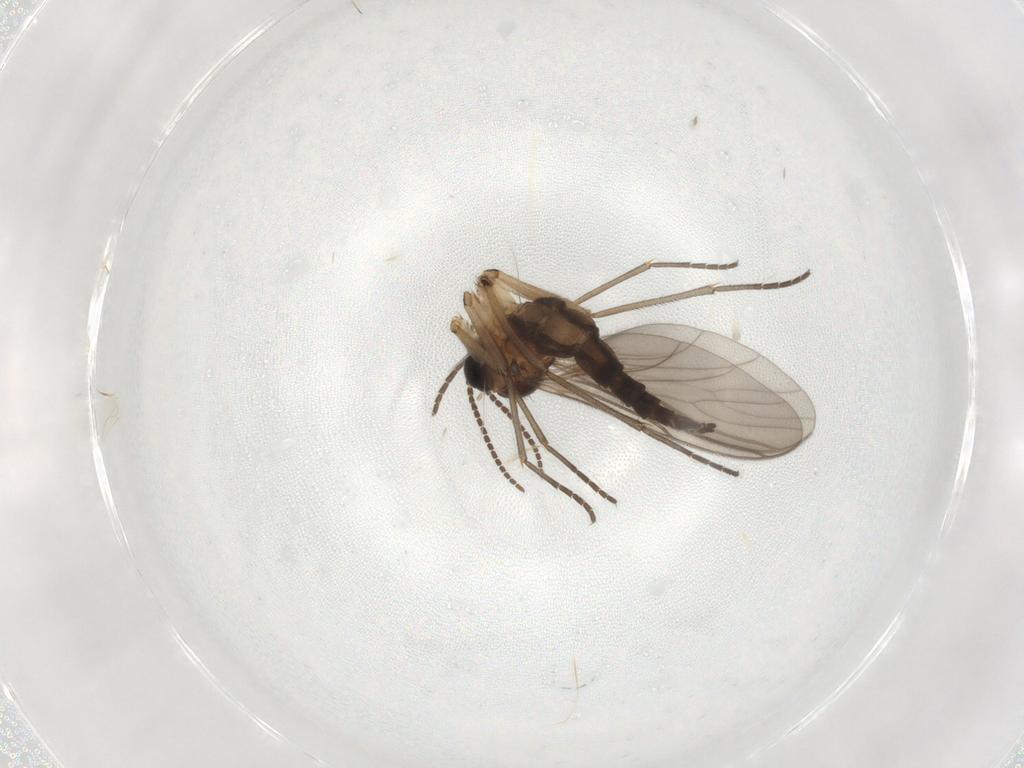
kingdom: Animalia
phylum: Arthropoda
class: Insecta
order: Diptera
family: Sciaridae
